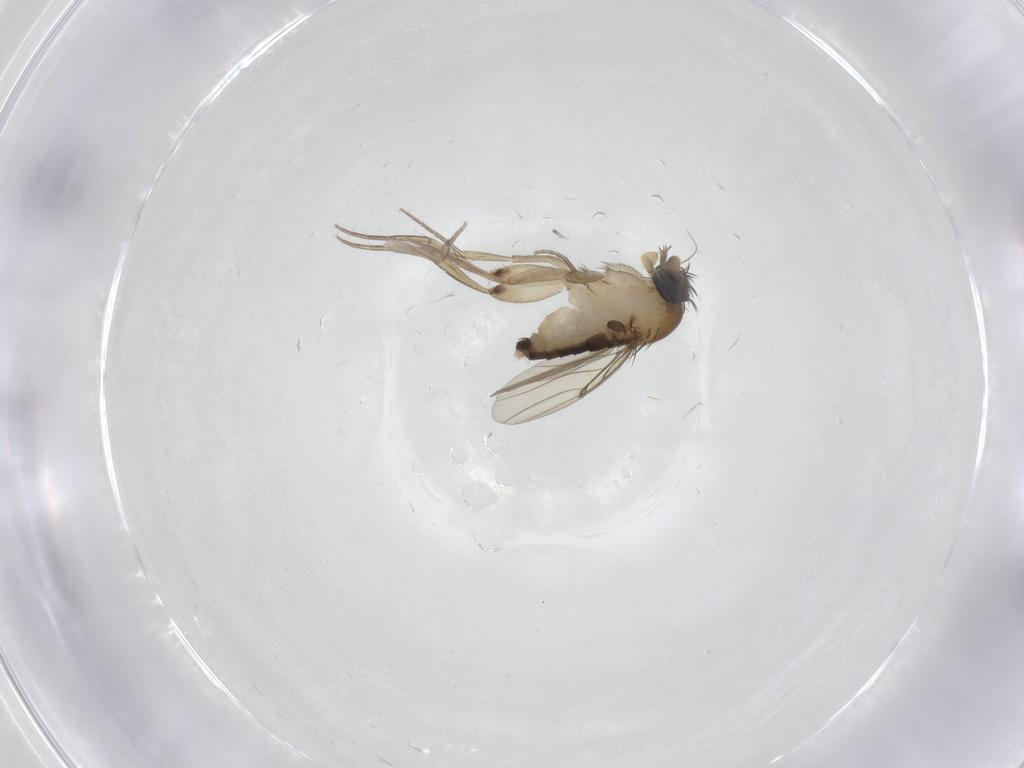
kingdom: Animalia
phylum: Arthropoda
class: Insecta
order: Diptera
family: Phoridae
